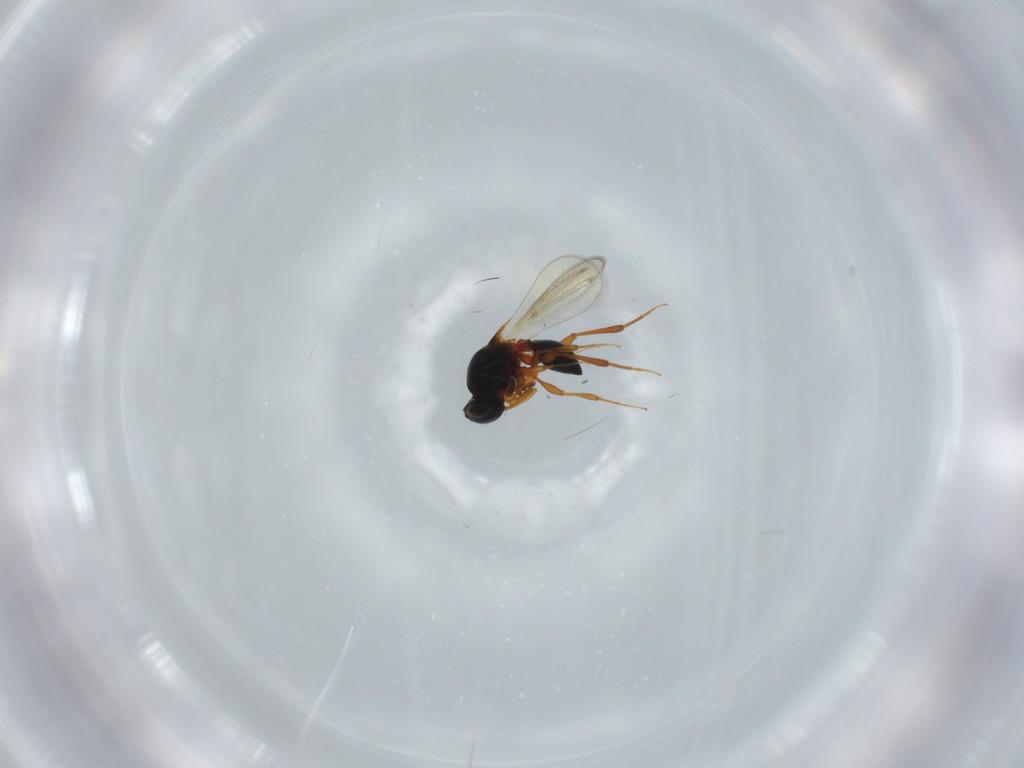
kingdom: Animalia
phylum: Arthropoda
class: Insecta
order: Hymenoptera
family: Platygastridae
